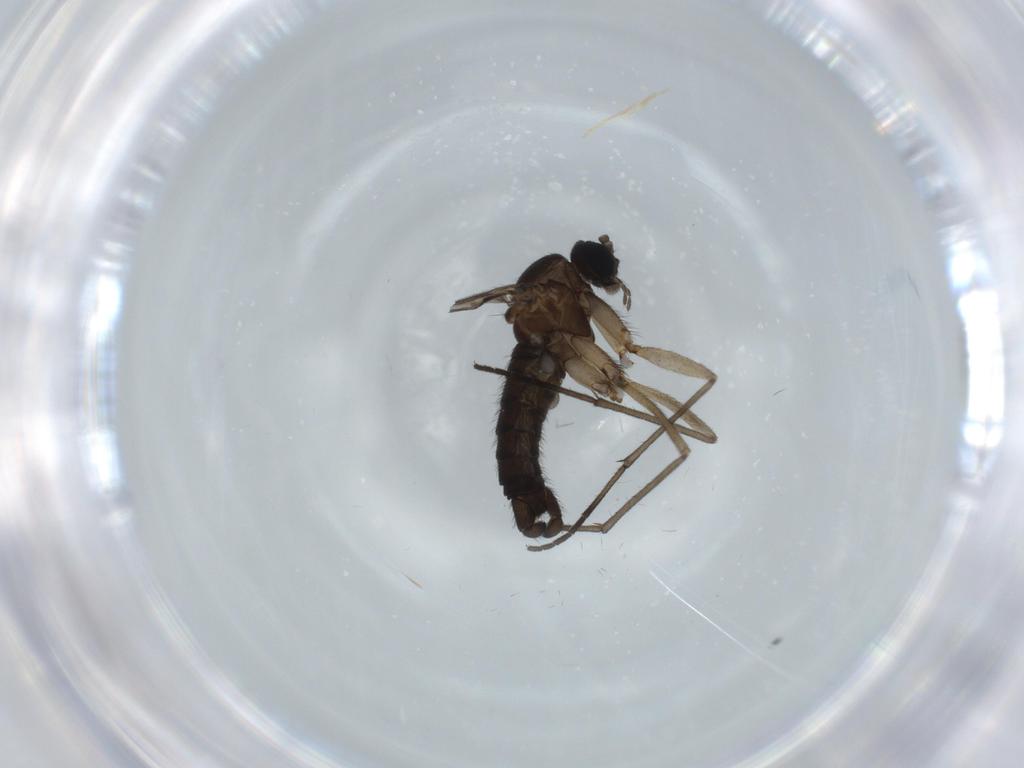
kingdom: Animalia
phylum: Arthropoda
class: Insecta
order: Diptera
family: Sciaridae
